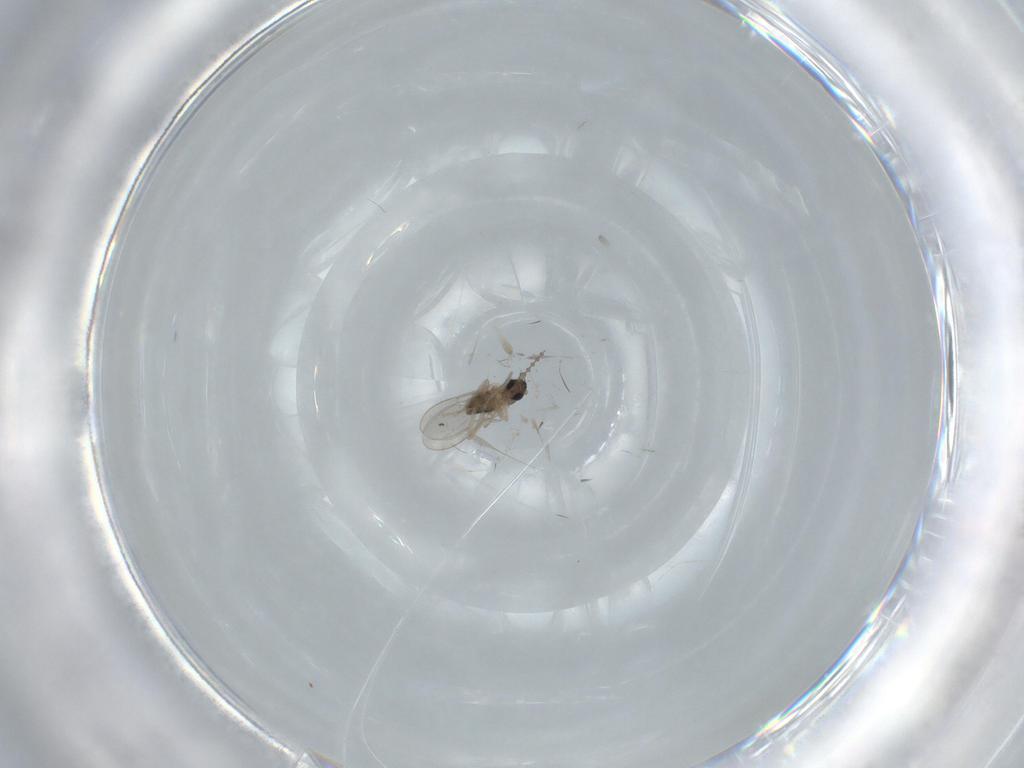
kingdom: Animalia
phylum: Arthropoda
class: Insecta
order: Diptera
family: Cecidomyiidae
